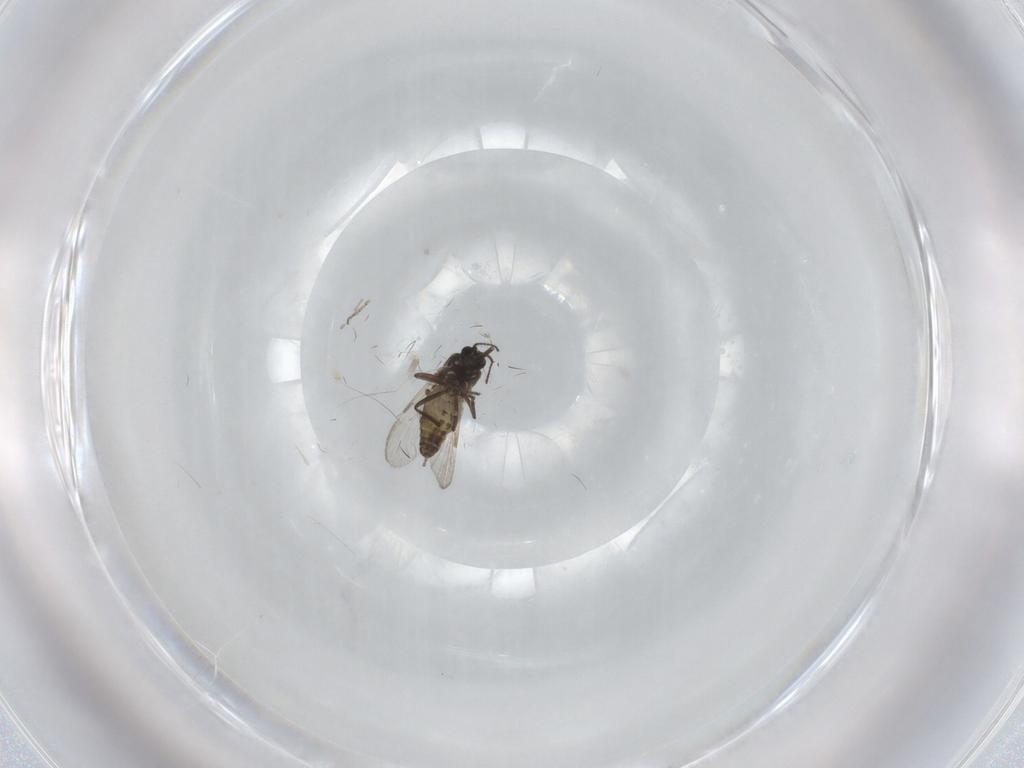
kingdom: Animalia
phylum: Arthropoda
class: Insecta
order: Diptera
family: Ceratopogonidae
